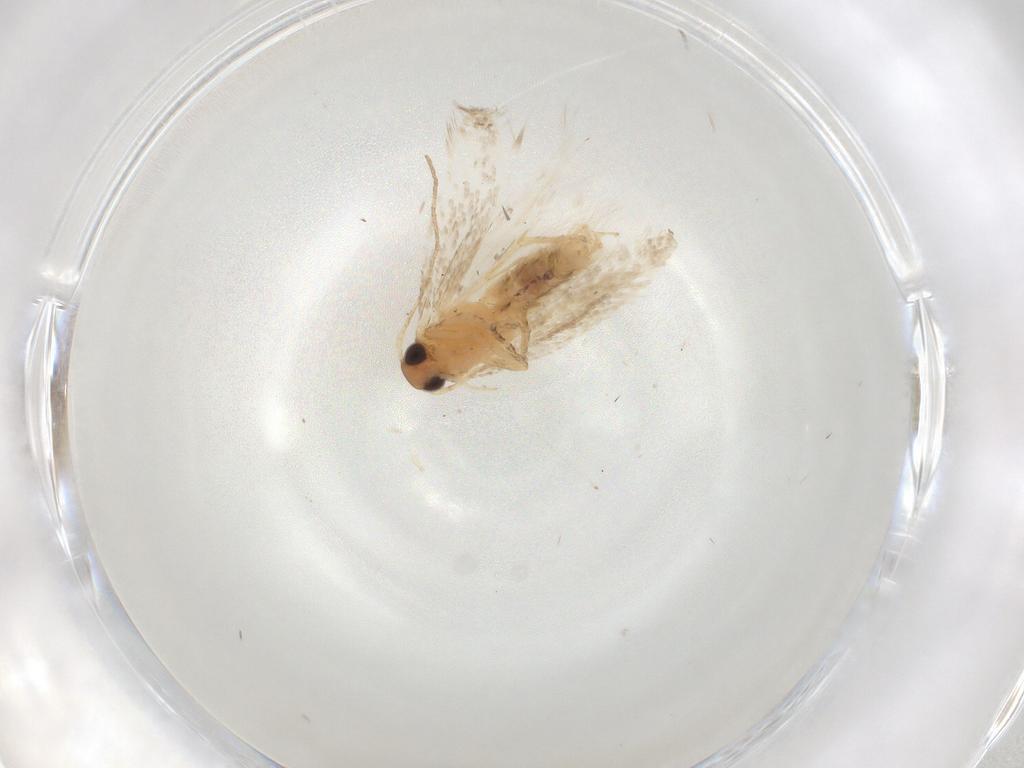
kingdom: Animalia
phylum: Arthropoda
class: Insecta
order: Lepidoptera
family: Gelechiidae
